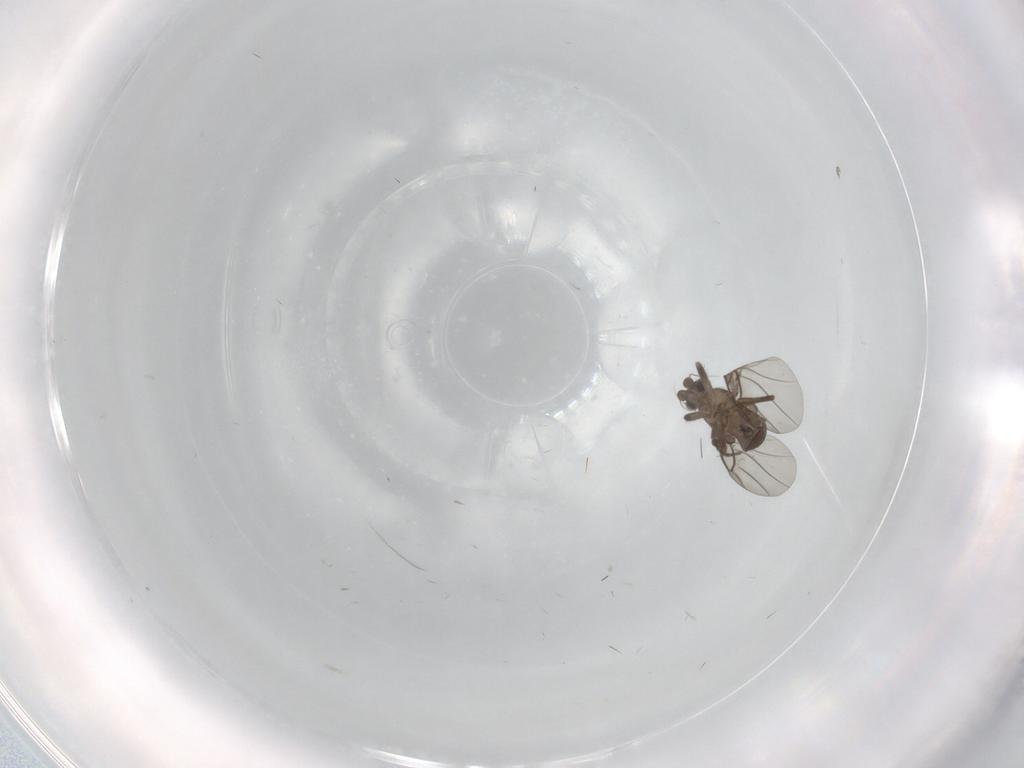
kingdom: Animalia
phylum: Arthropoda
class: Insecta
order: Diptera
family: Phoridae
